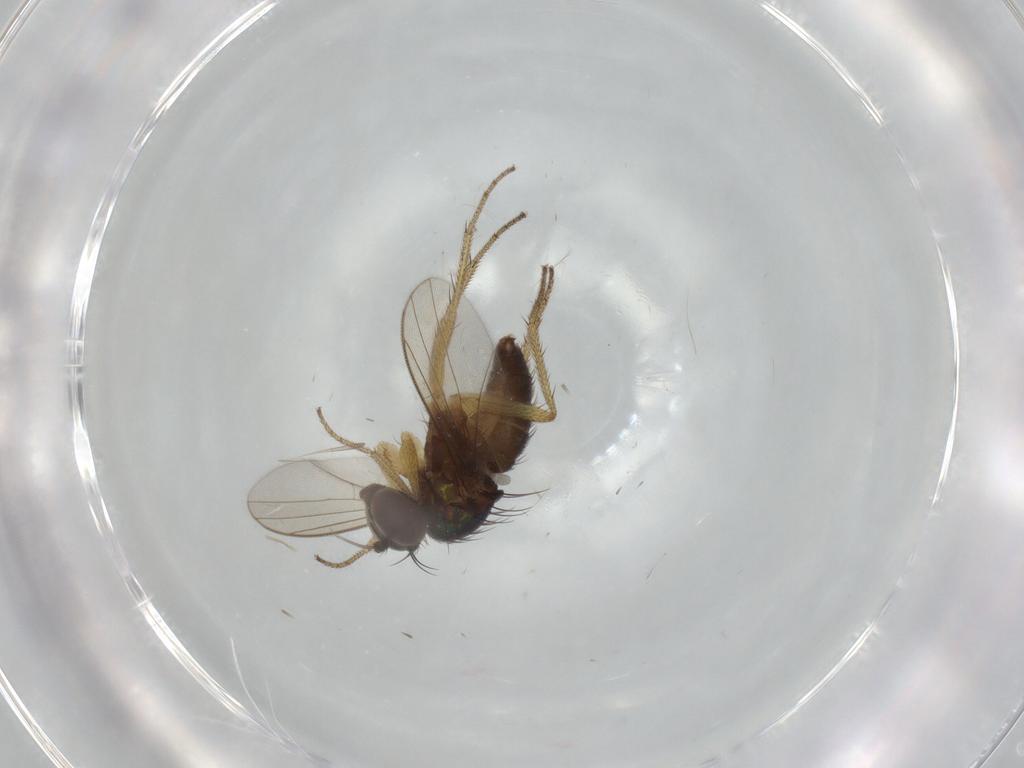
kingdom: Animalia
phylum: Arthropoda
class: Insecta
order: Diptera
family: Dolichopodidae
